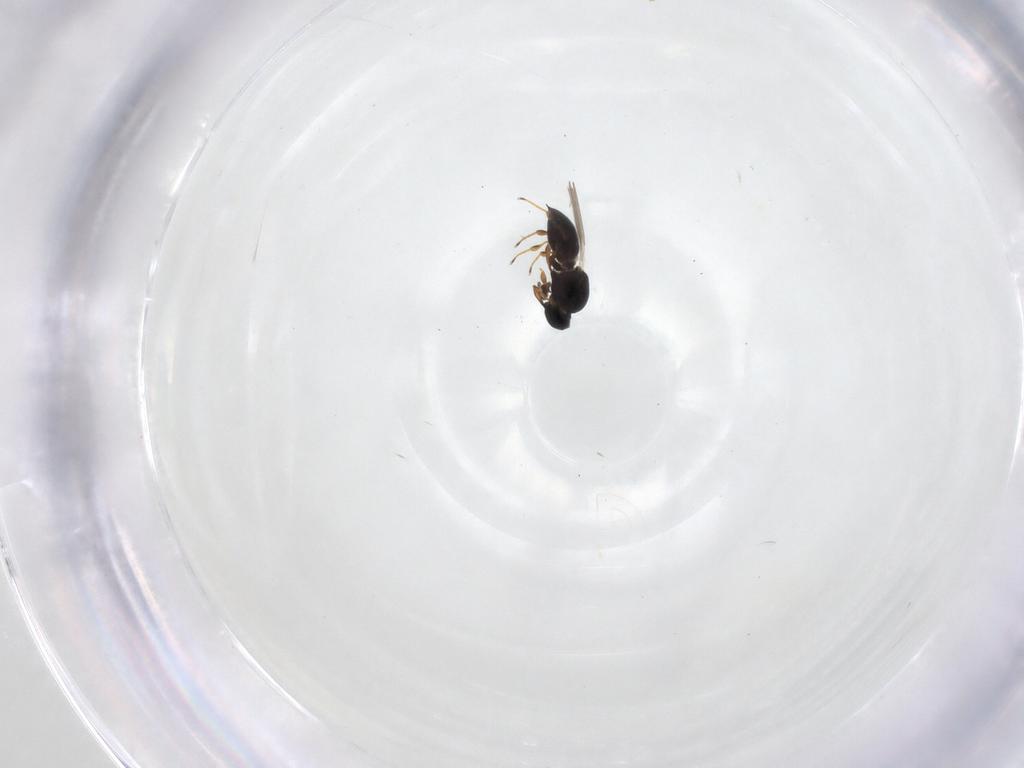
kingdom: Animalia
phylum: Arthropoda
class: Insecta
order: Hymenoptera
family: Platygastridae
